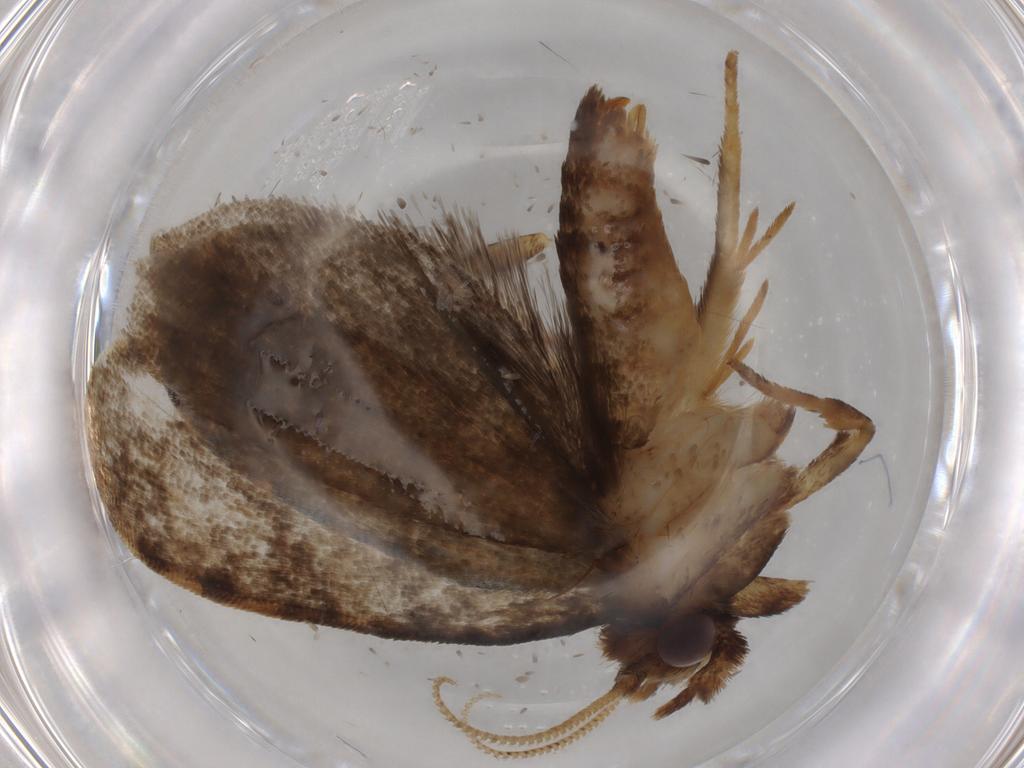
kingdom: Animalia
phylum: Arthropoda
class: Insecta
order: Lepidoptera
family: Tineidae
